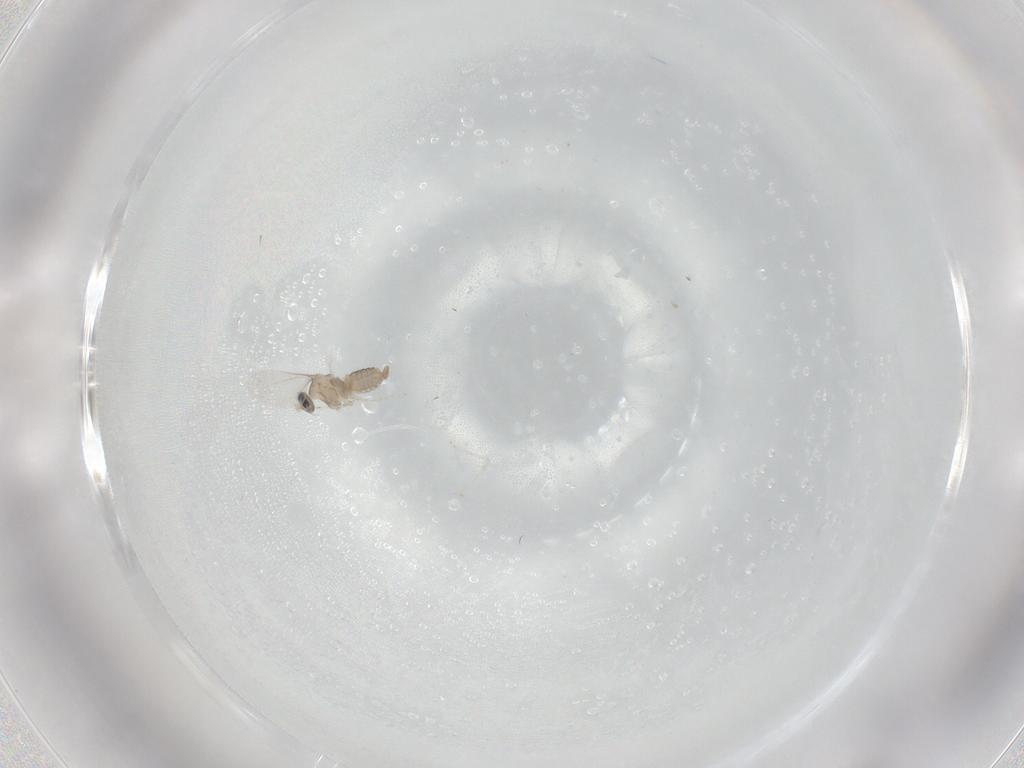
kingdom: Animalia
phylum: Arthropoda
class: Insecta
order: Diptera
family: Cecidomyiidae
